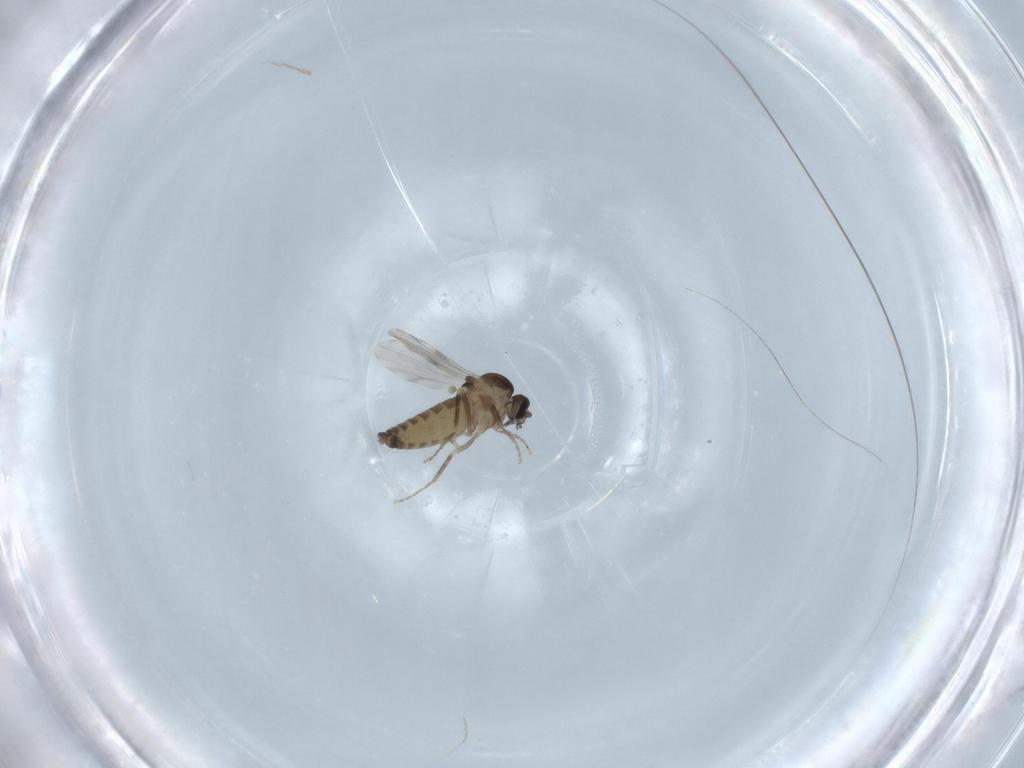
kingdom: Animalia
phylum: Arthropoda
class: Insecta
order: Diptera
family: Ceratopogonidae
